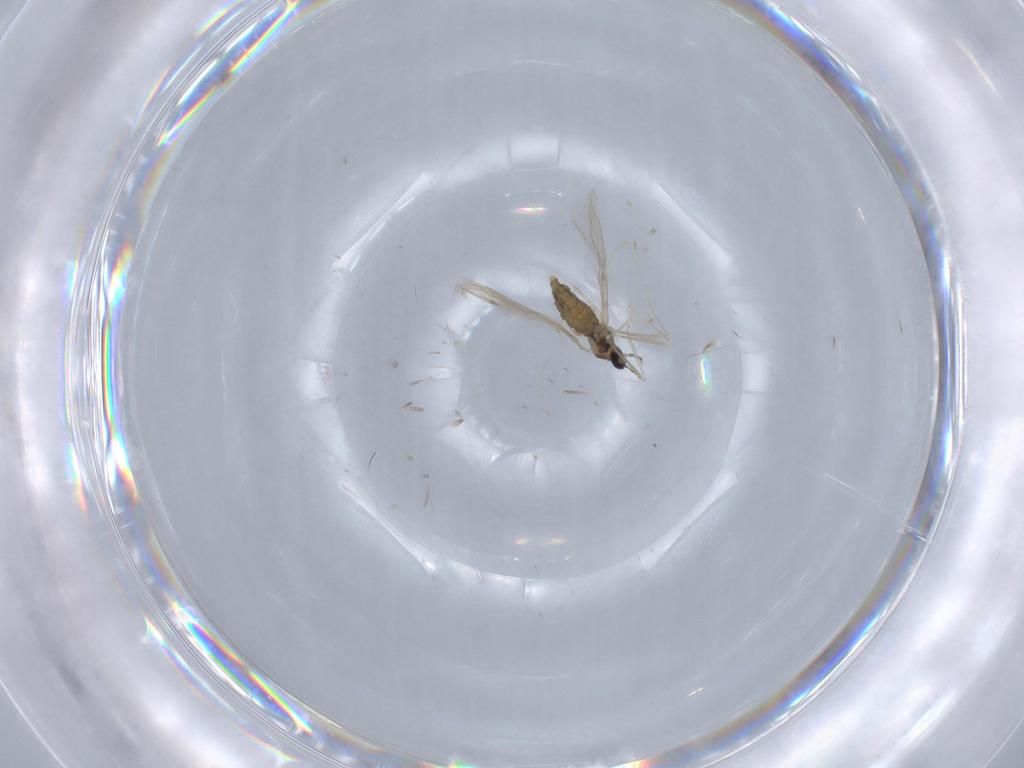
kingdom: Animalia
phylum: Arthropoda
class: Insecta
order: Diptera
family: Cecidomyiidae
